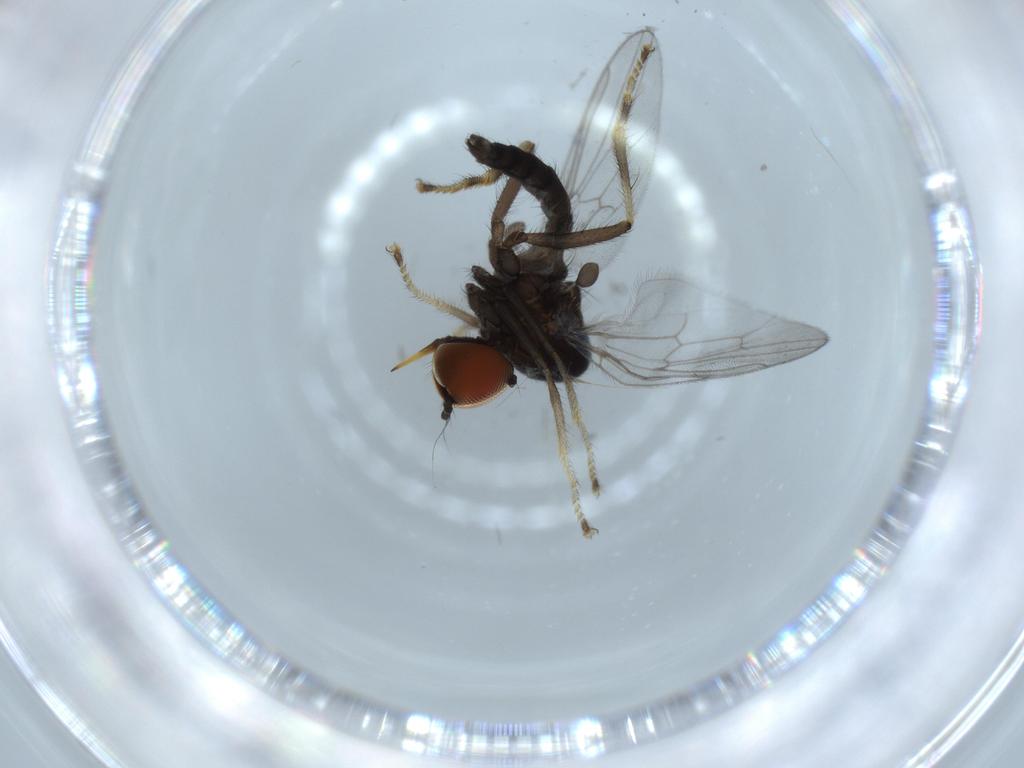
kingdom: Animalia
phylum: Arthropoda
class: Insecta
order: Diptera
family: Hybotidae
